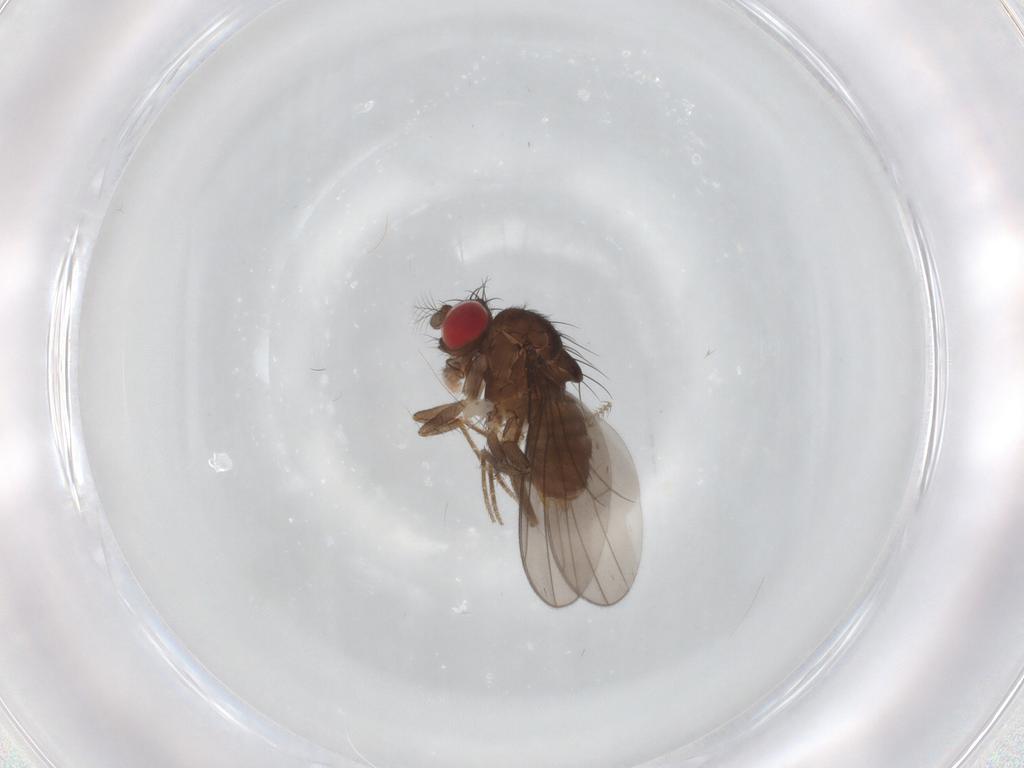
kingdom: Animalia
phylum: Arthropoda
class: Insecta
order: Diptera
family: Drosophilidae
